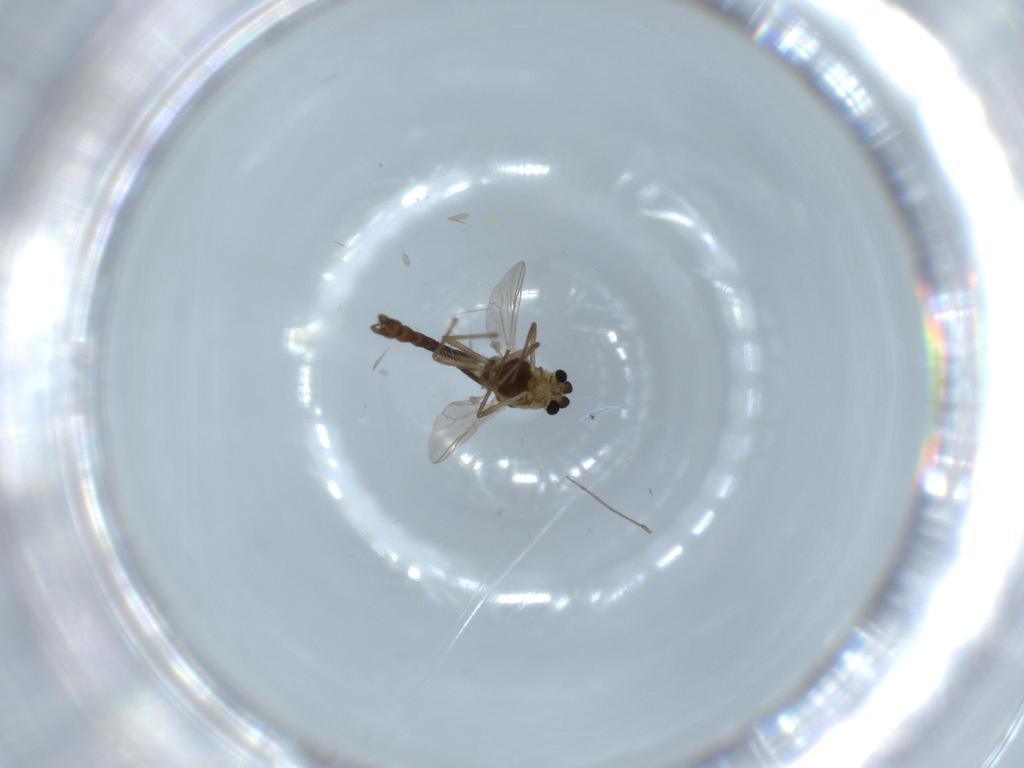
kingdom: Animalia
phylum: Arthropoda
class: Insecta
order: Diptera
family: Chironomidae
